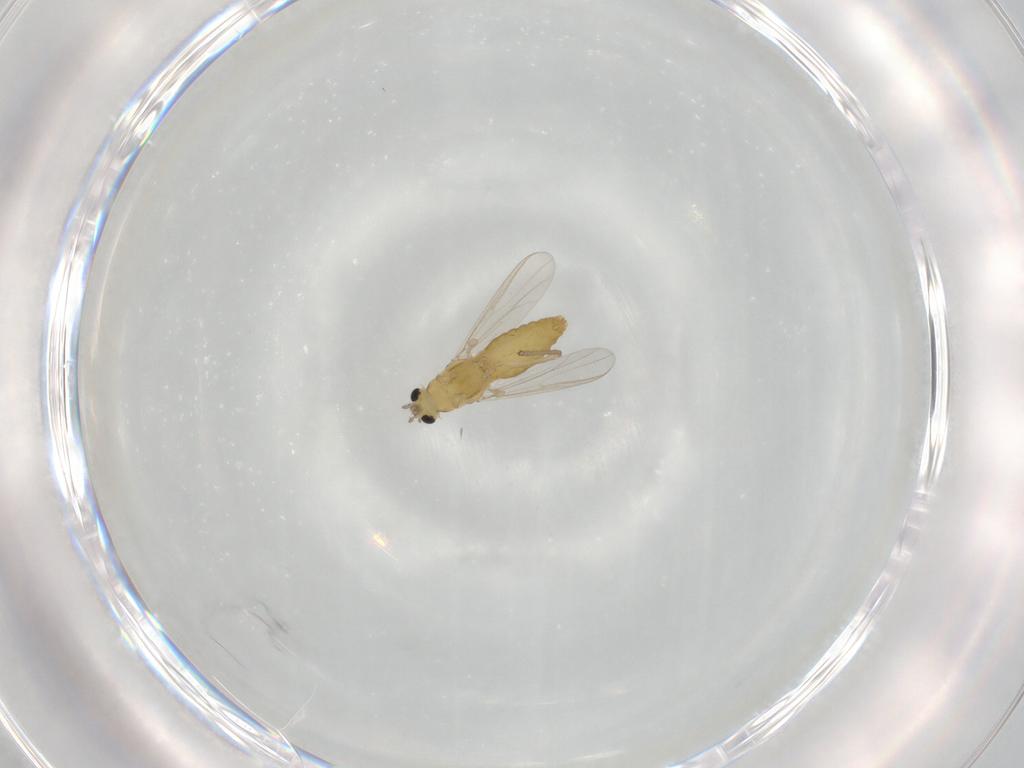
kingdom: Animalia
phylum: Arthropoda
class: Insecta
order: Diptera
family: Chironomidae
